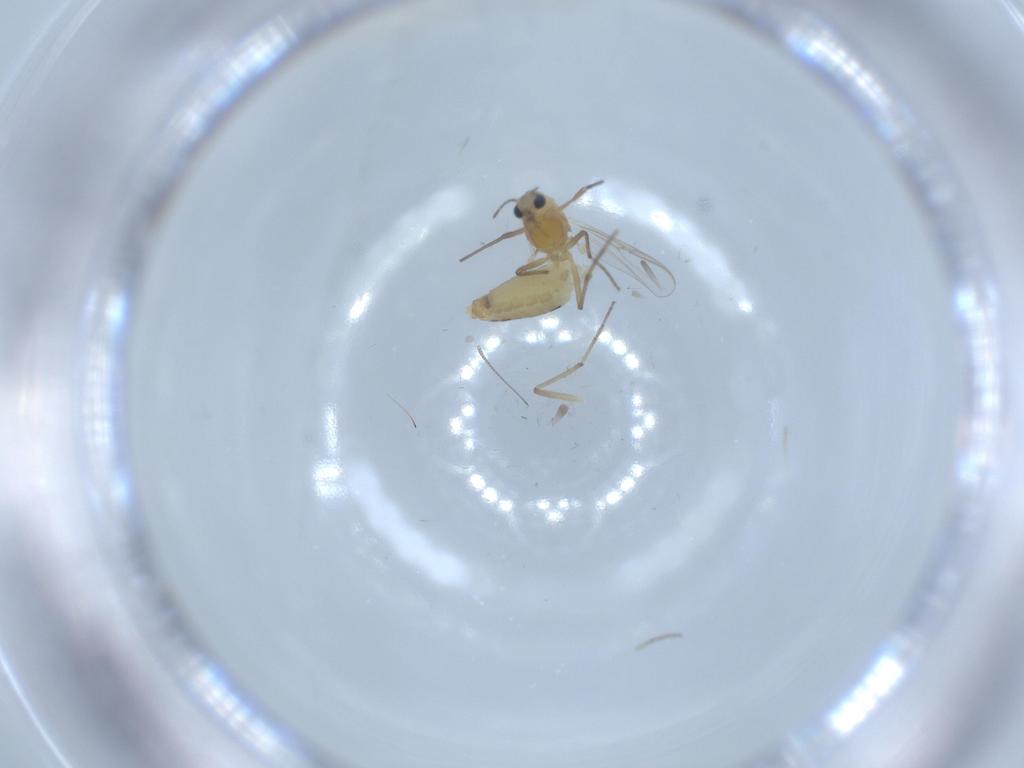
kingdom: Animalia
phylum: Arthropoda
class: Insecta
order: Diptera
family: Chironomidae
